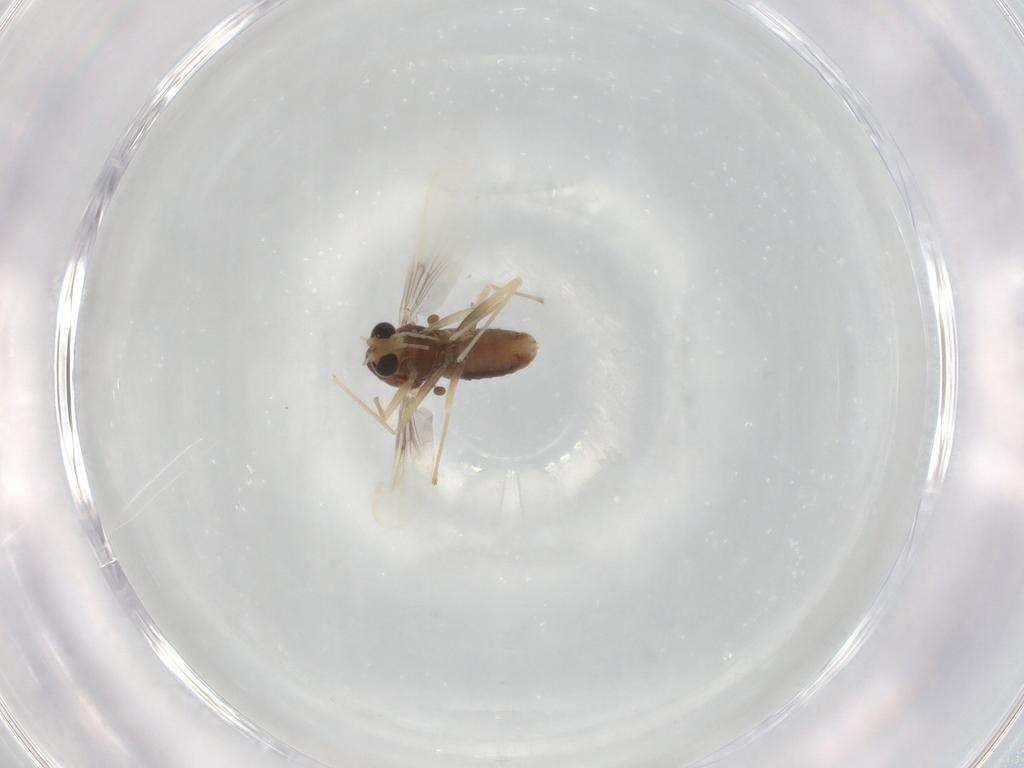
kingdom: Animalia
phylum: Arthropoda
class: Insecta
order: Diptera
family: Chironomidae
